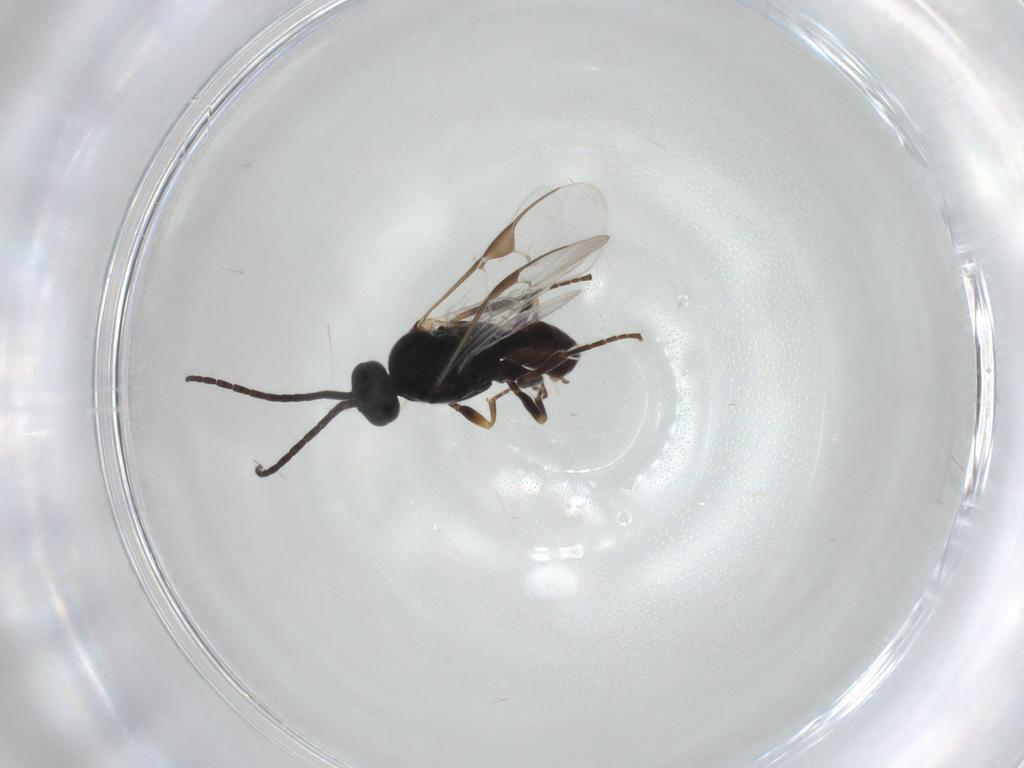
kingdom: Animalia
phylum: Arthropoda
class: Insecta
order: Hymenoptera
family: Braconidae
